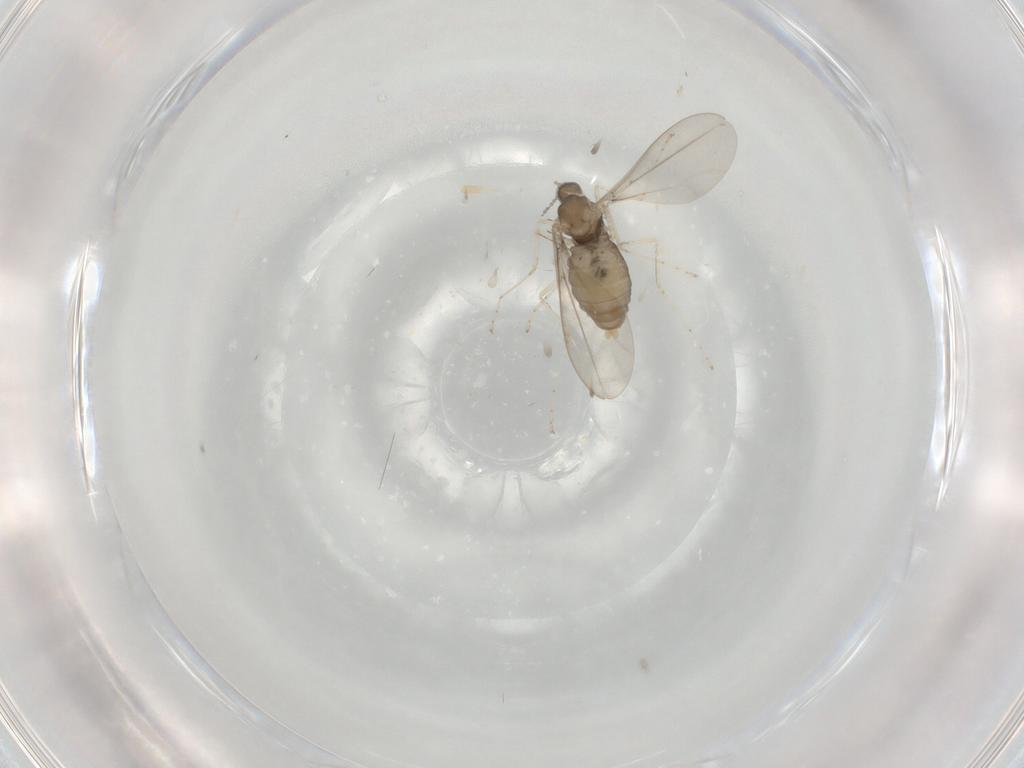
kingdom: Animalia
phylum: Arthropoda
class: Insecta
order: Diptera
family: Cecidomyiidae
